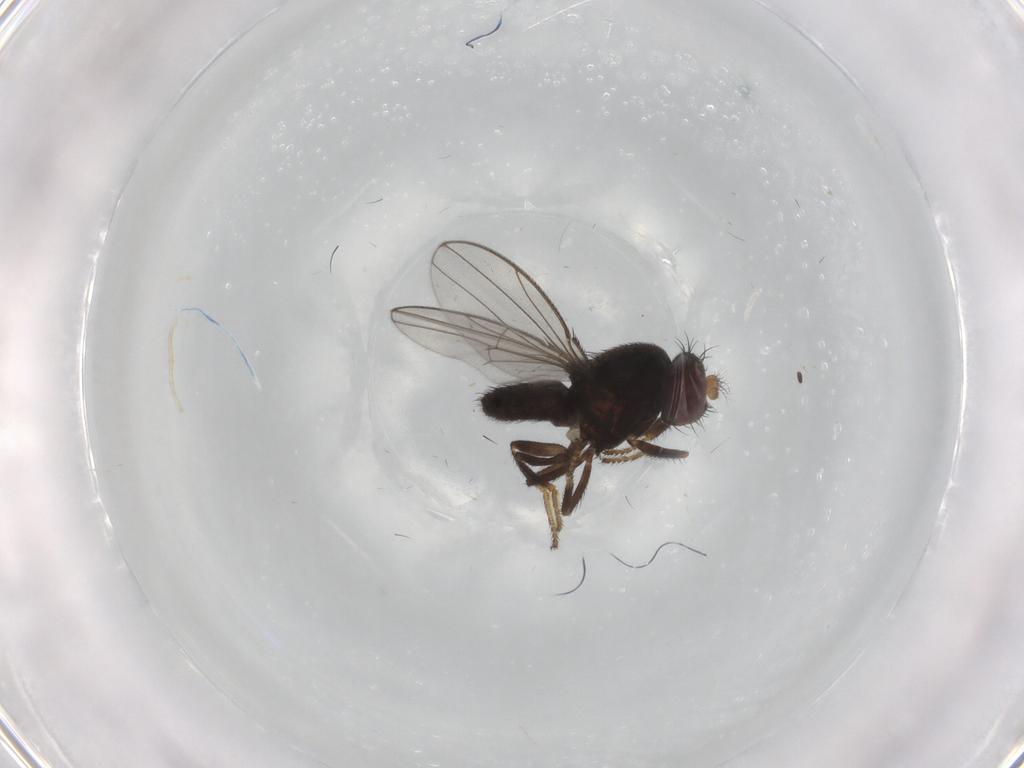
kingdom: Animalia
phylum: Arthropoda
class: Insecta
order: Diptera
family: Ephydridae
